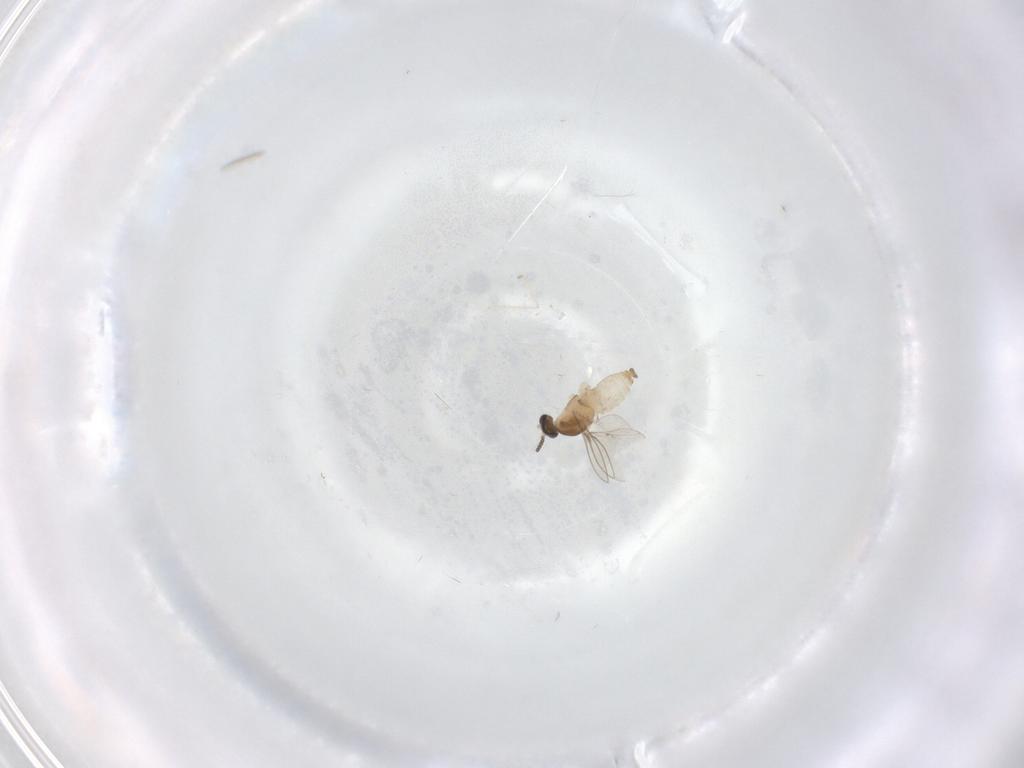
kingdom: Animalia
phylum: Arthropoda
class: Insecta
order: Diptera
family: Cecidomyiidae
